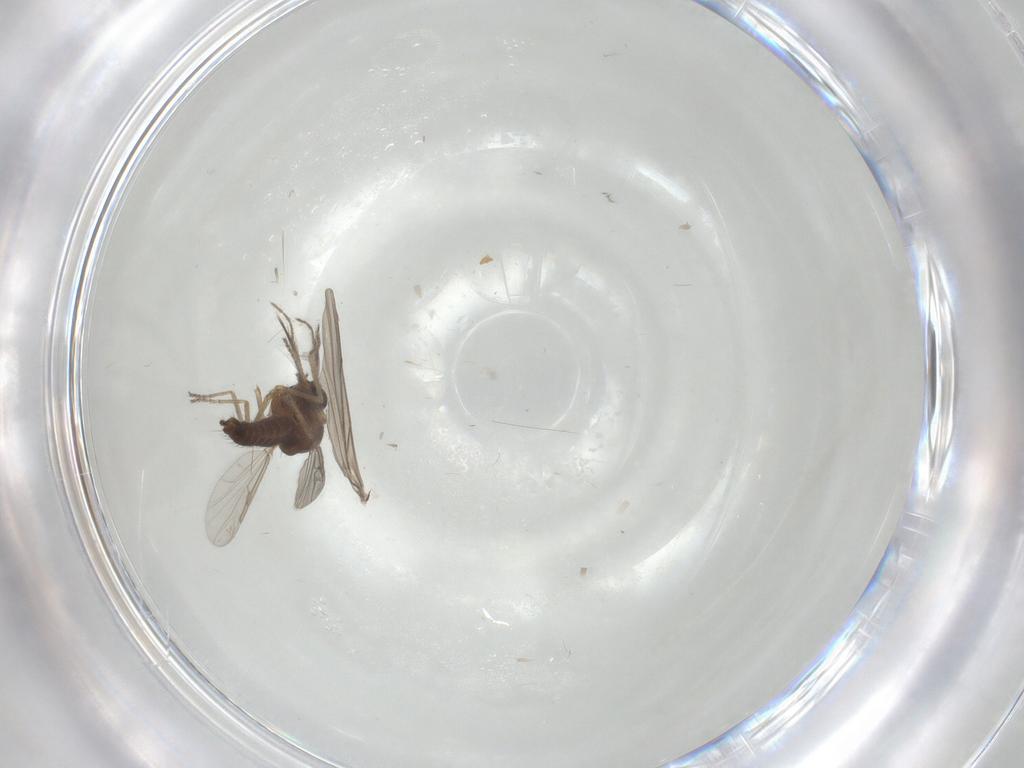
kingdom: Animalia
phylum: Arthropoda
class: Insecta
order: Diptera
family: Ceratopogonidae
